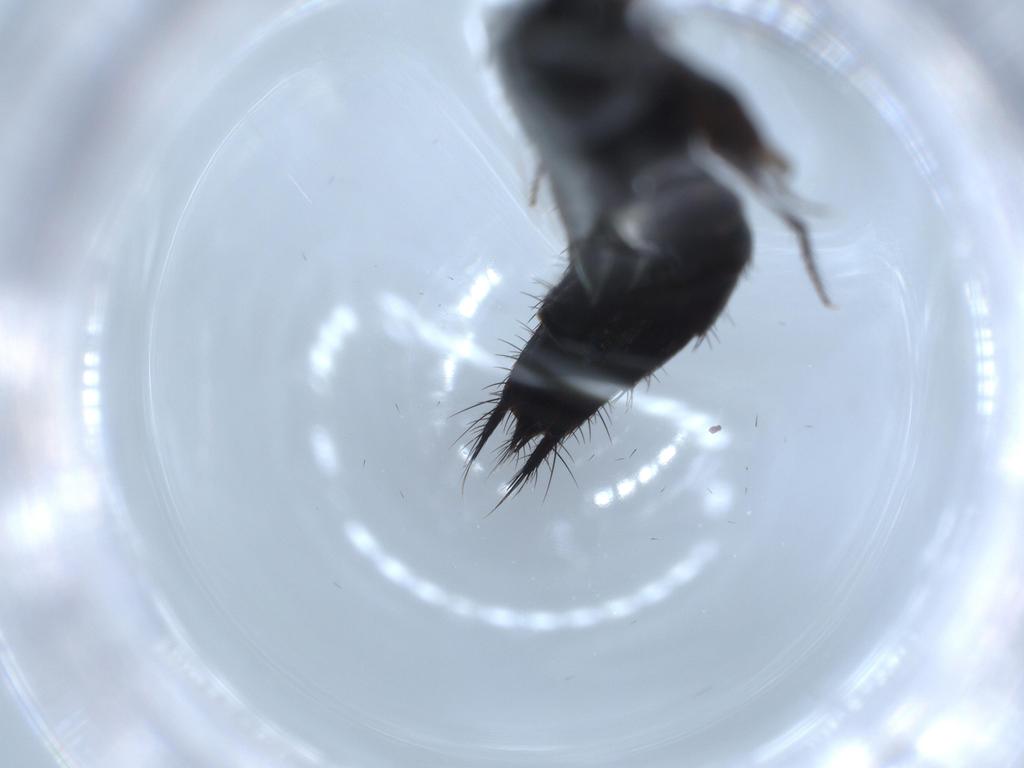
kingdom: Animalia
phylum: Arthropoda
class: Insecta
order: Coleoptera
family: Staphylinidae
